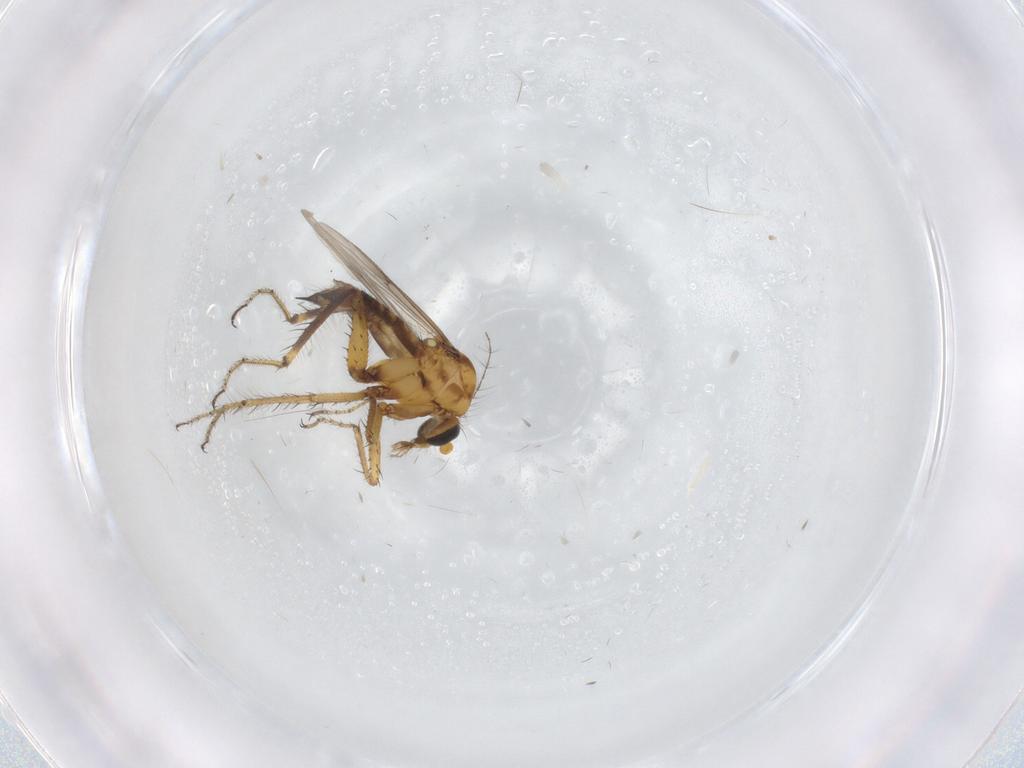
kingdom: Animalia
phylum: Arthropoda
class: Insecta
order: Diptera
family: Ceratopogonidae
